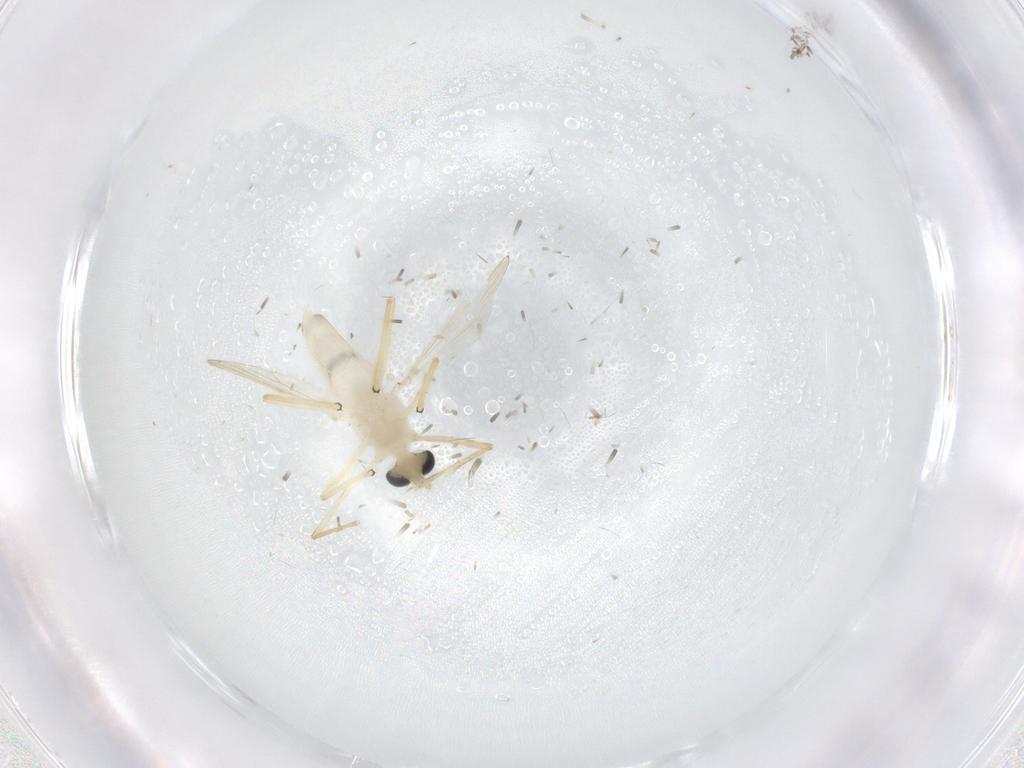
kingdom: Animalia
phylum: Arthropoda
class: Insecta
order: Diptera
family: Chironomidae
